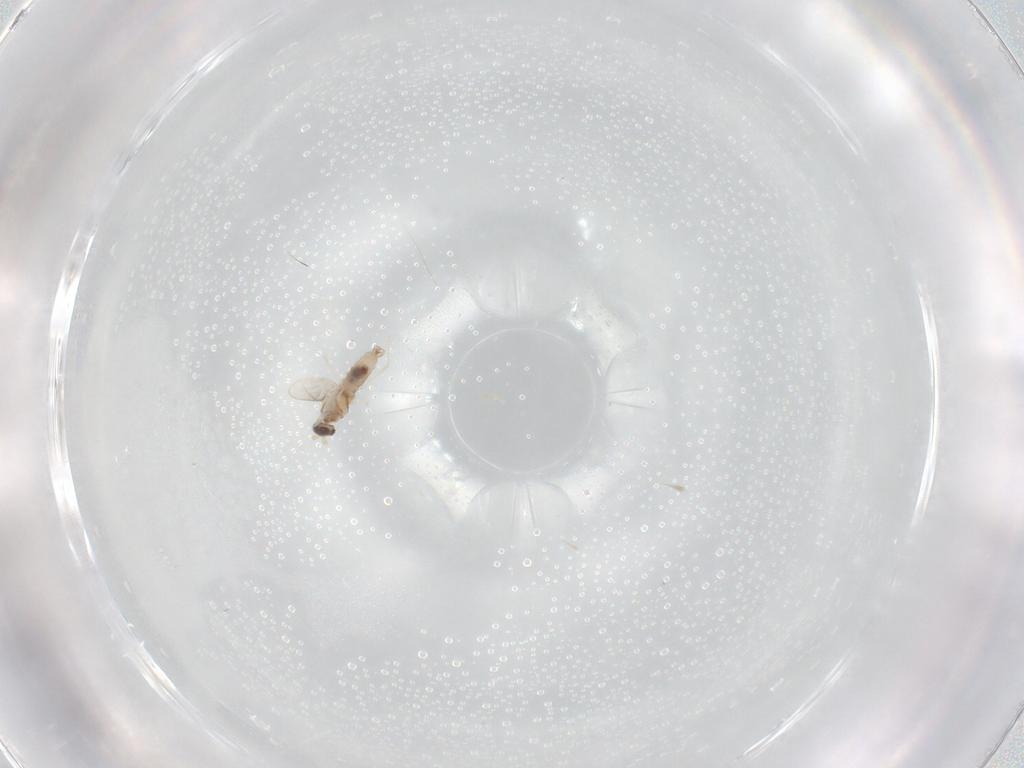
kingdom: Animalia
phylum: Arthropoda
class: Insecta
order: Diptera
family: Cecidomyiidae
